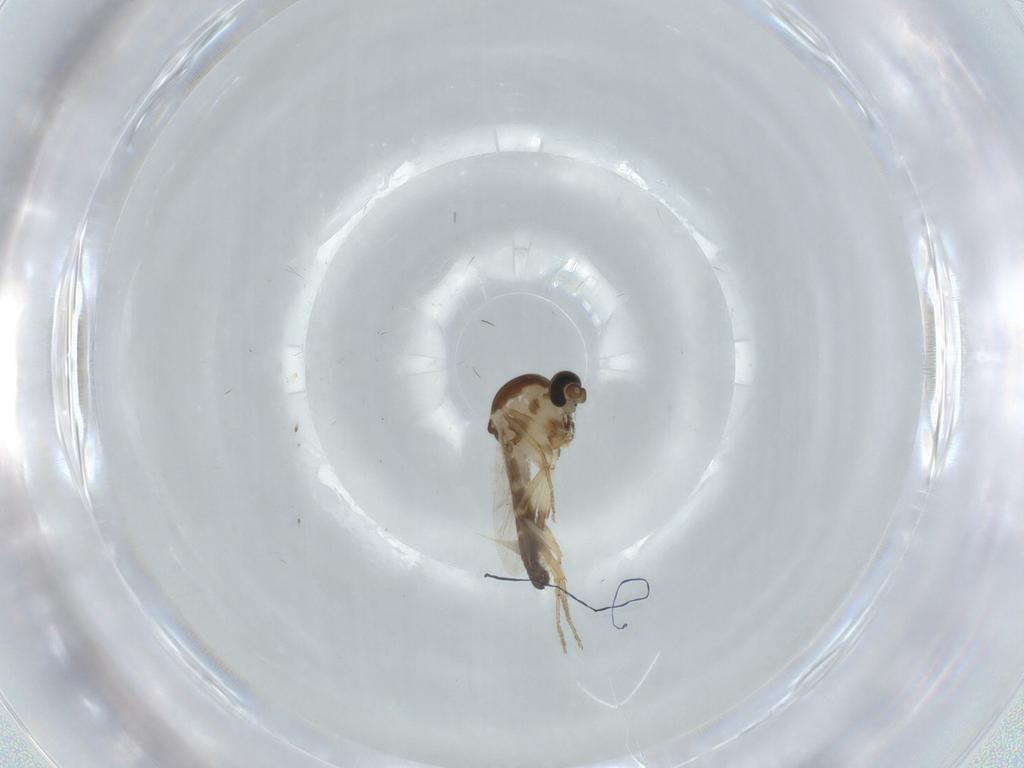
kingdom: Animalia
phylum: Arthropoda
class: Insecta
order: Diptera
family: Ceratopogonidae
